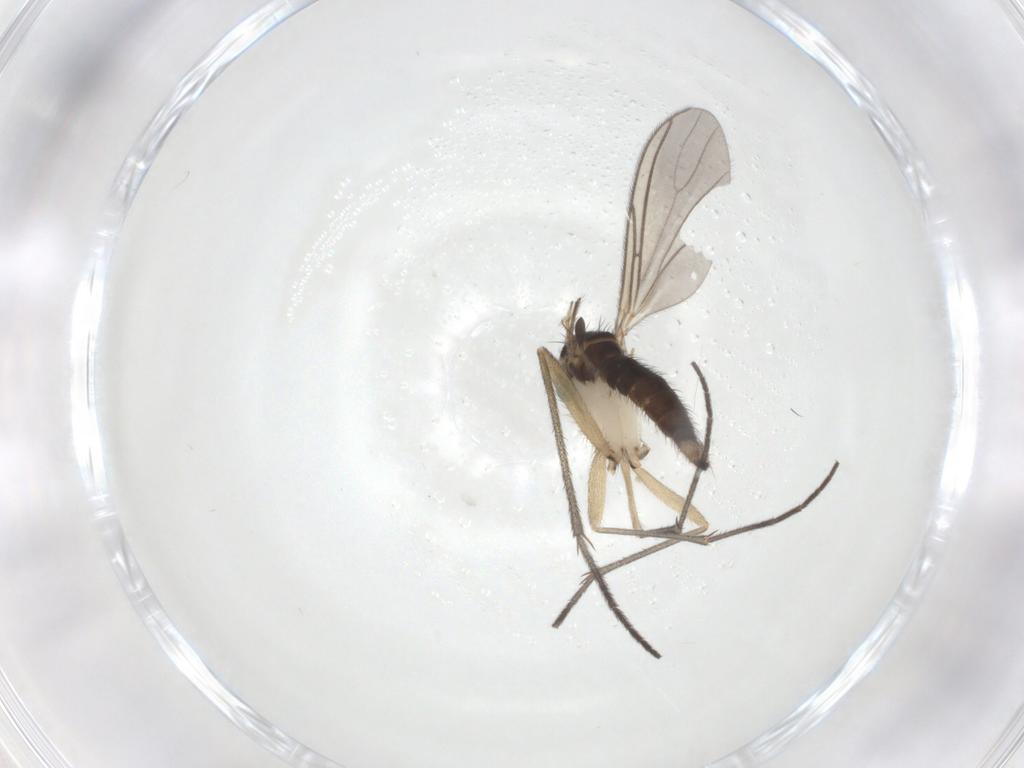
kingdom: Animalia
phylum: Arthropoda
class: Insecta
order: Diptera
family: Sciaridae
